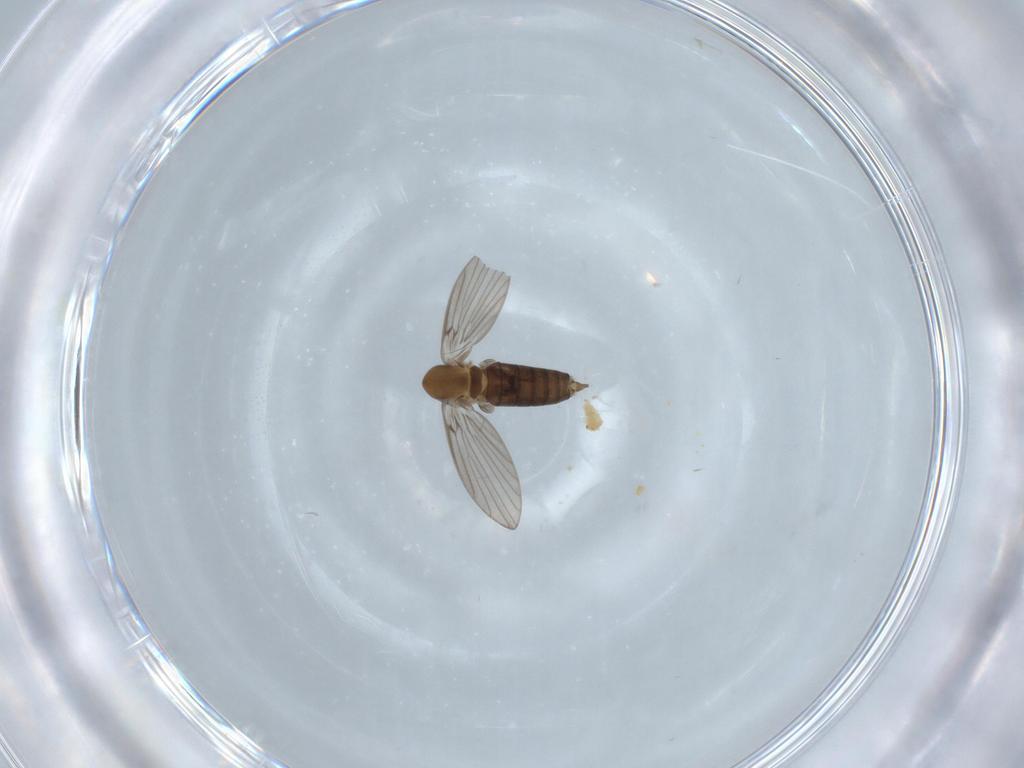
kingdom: Animalia
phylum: Arthropoda
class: Insecta
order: Diptera
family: Psychodidae
